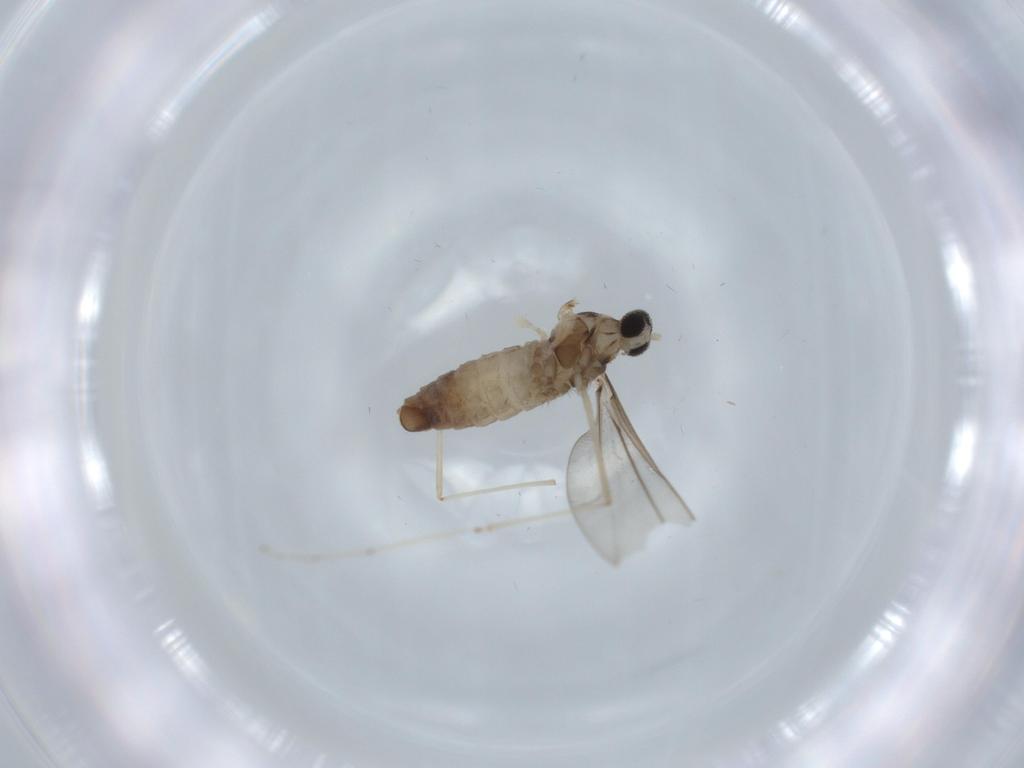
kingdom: Animalia
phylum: Arthropoda
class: Insecta
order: Diptera
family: Cecidomyiidae
